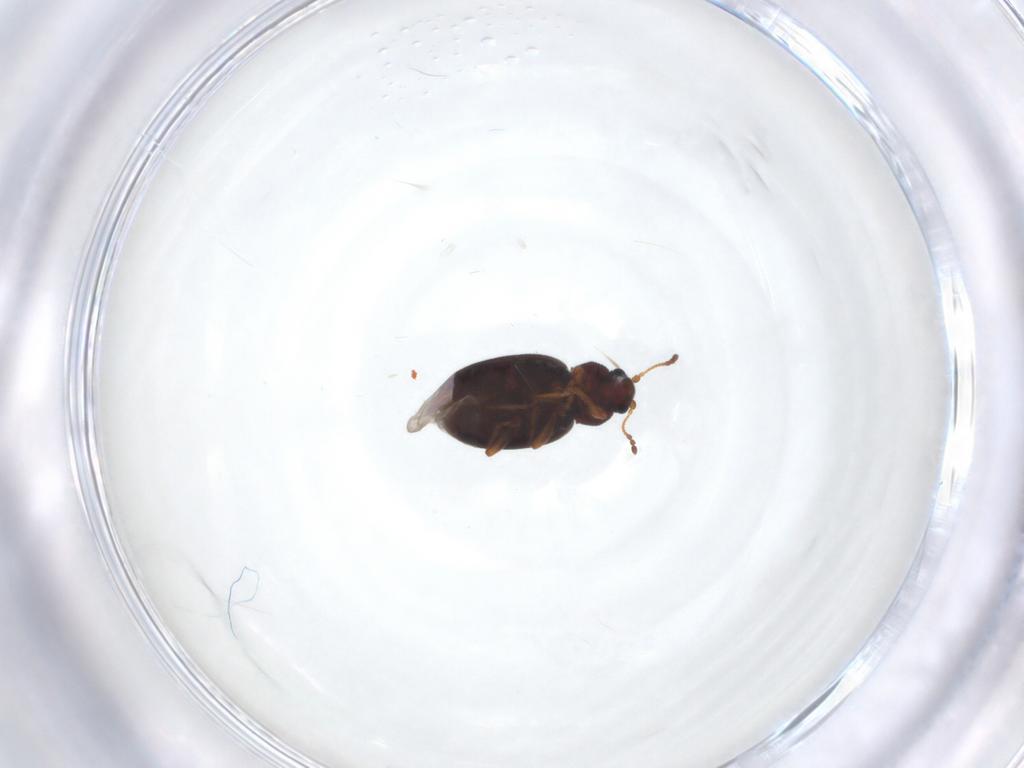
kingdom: Animalia
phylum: Arthropoda
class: Insecta
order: Coleoptera
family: Latridiidae
